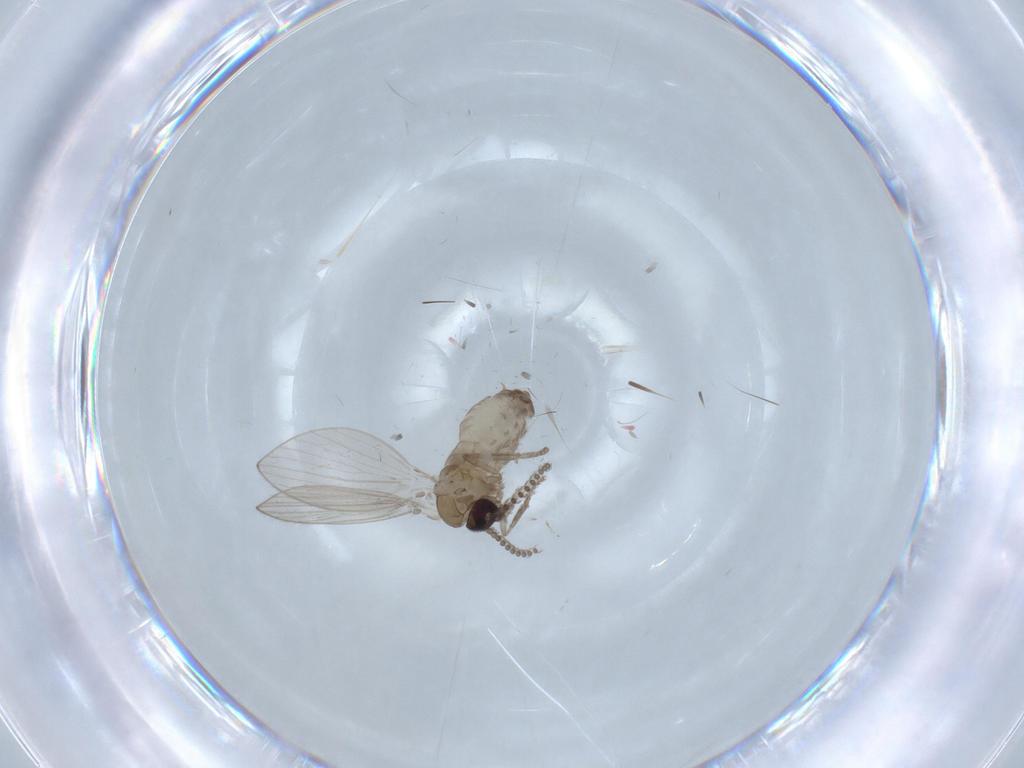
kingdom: Animalia
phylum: Arthropoda
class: Insecta
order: Diptera
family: Psychodidae
